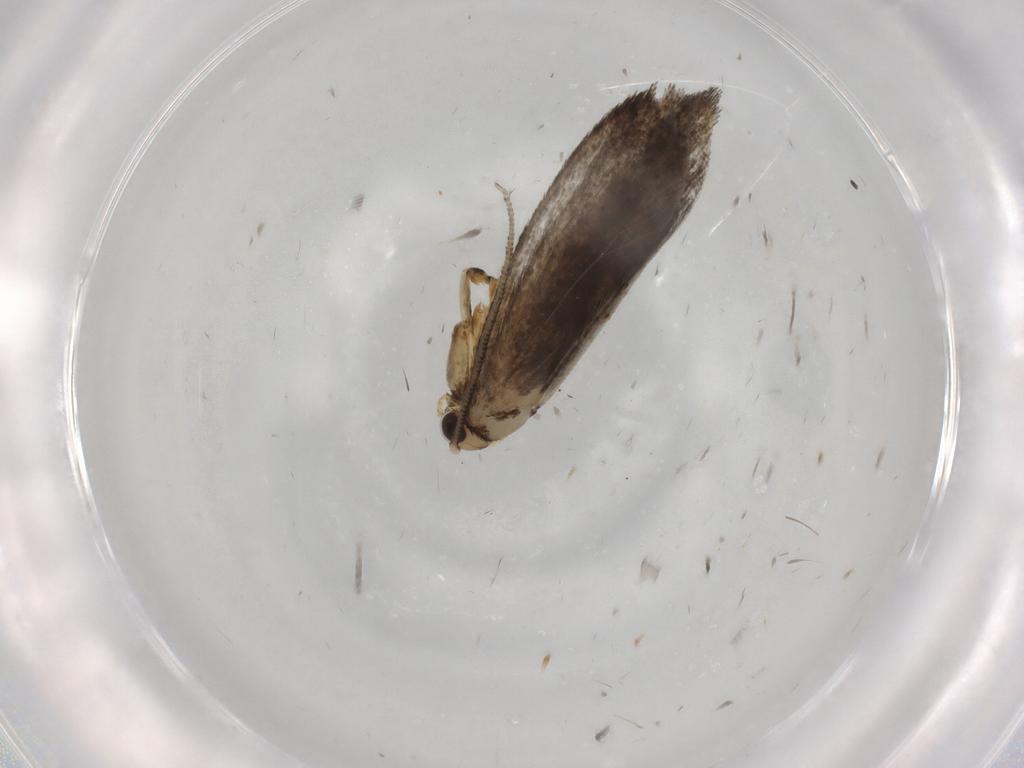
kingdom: Animalia
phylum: Arthropoda
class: Insecta
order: Lepidoptera
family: Tineidae
